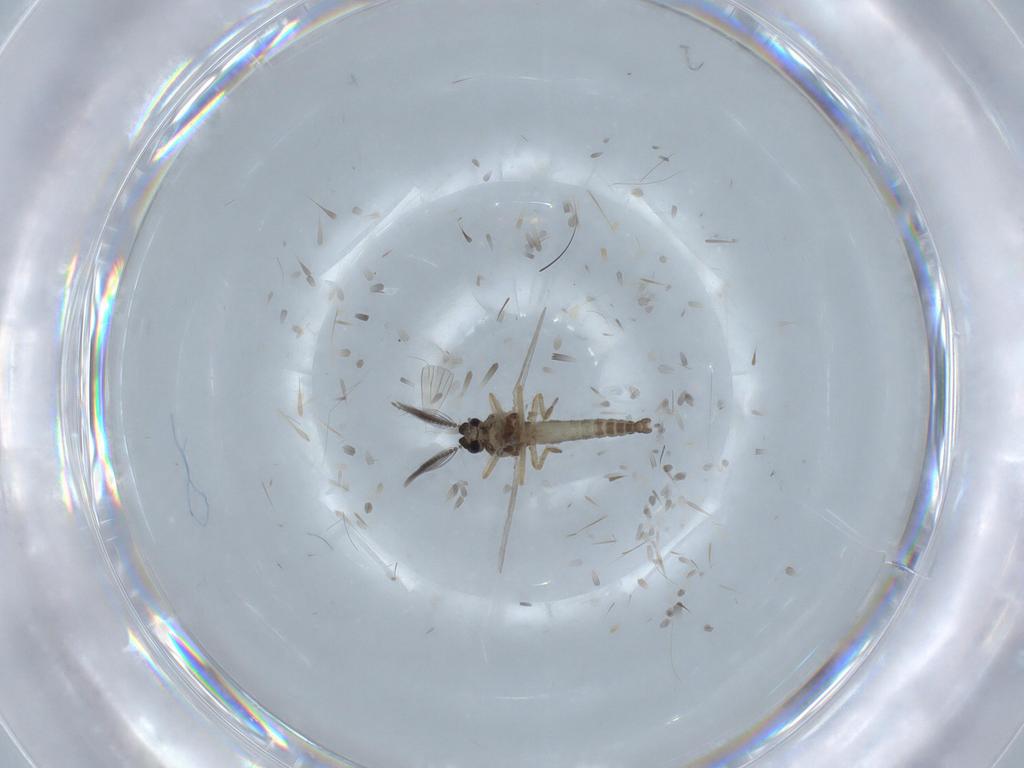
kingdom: Animalia
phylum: Arthropoda
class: Insecta
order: Diptera
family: Ceratopogonidae
